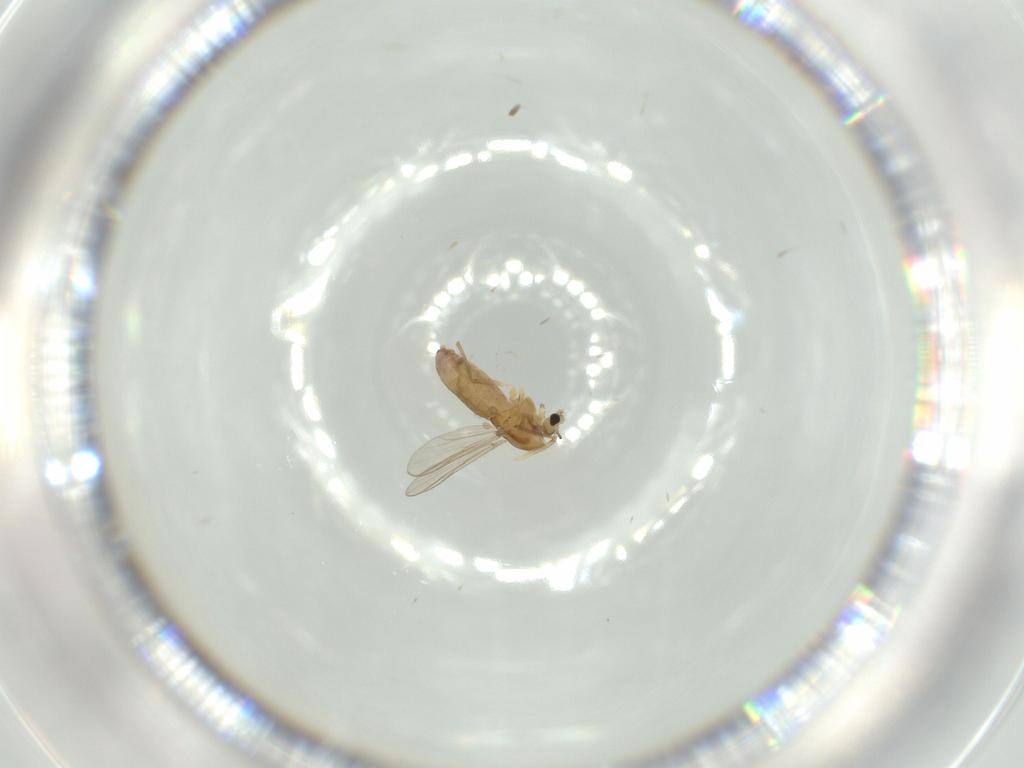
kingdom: Animalia
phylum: Arthropoda
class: Insecta
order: Diptera
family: Chironomidae
